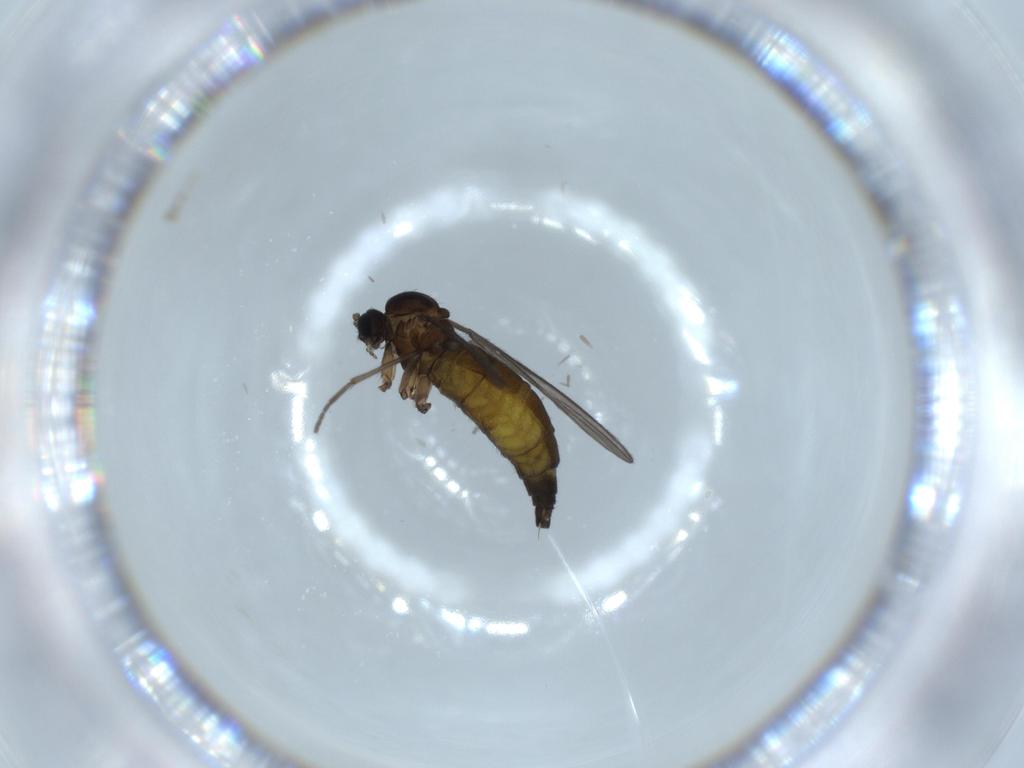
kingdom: Animalia
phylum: Arthropoda
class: Insecta
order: Diptera
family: Sciaridae
